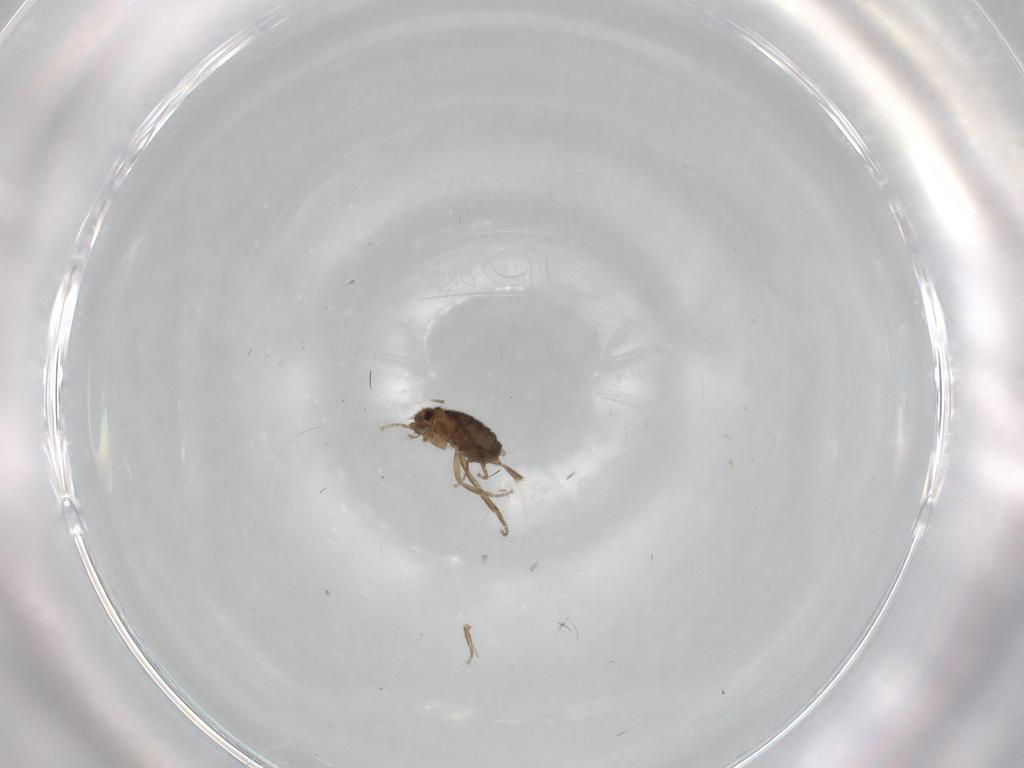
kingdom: Animalia
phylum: Arthropoda
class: Insecta
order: Diptera
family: Phoridae
